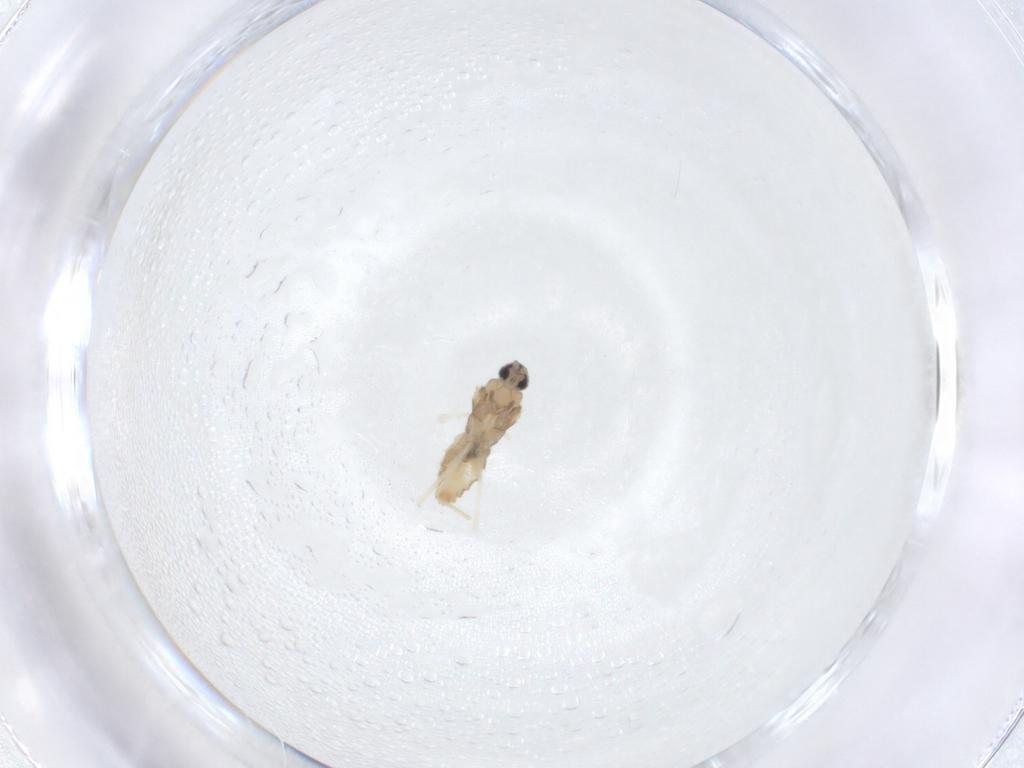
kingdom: Animalia
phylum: Arthropoda
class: Insecta
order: Diptera
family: Cecidomyiidae
